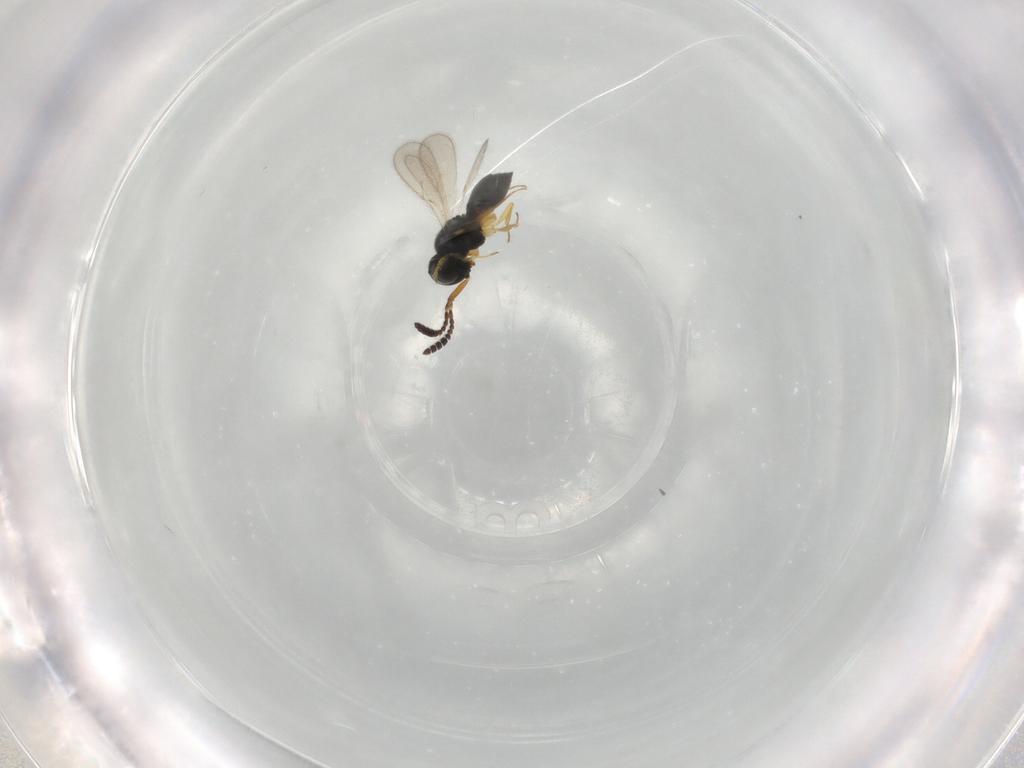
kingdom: Animalia
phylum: Arthropoda
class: Insecta
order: Hymenoptera
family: Scelionidae
